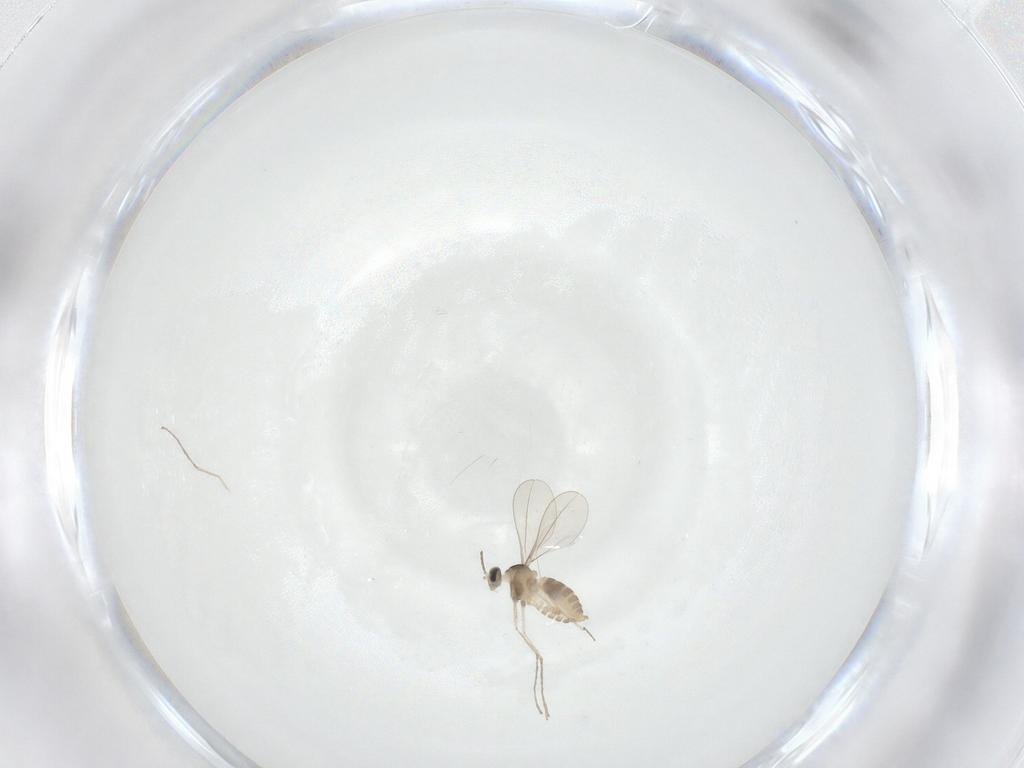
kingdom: Animalia
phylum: Arthropoda
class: Insecta
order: Diptera
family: Cecidomyiidae
